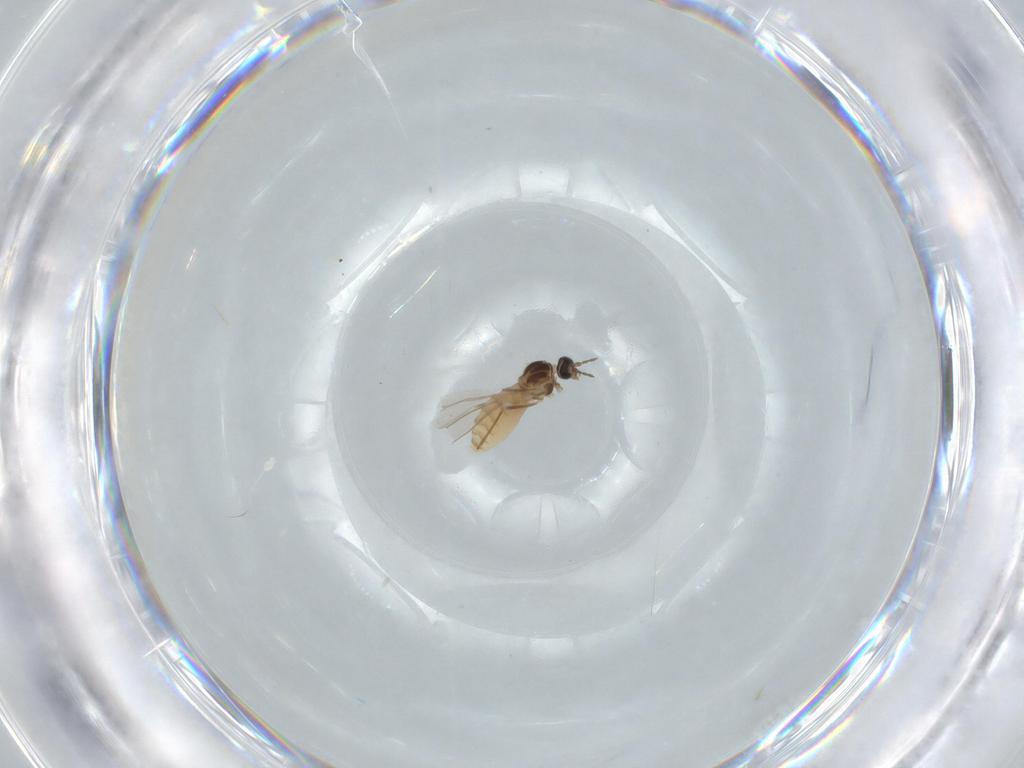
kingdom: Animalia
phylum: Arthropoda
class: Insecta
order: Diptera
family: Cecidomyiidae
